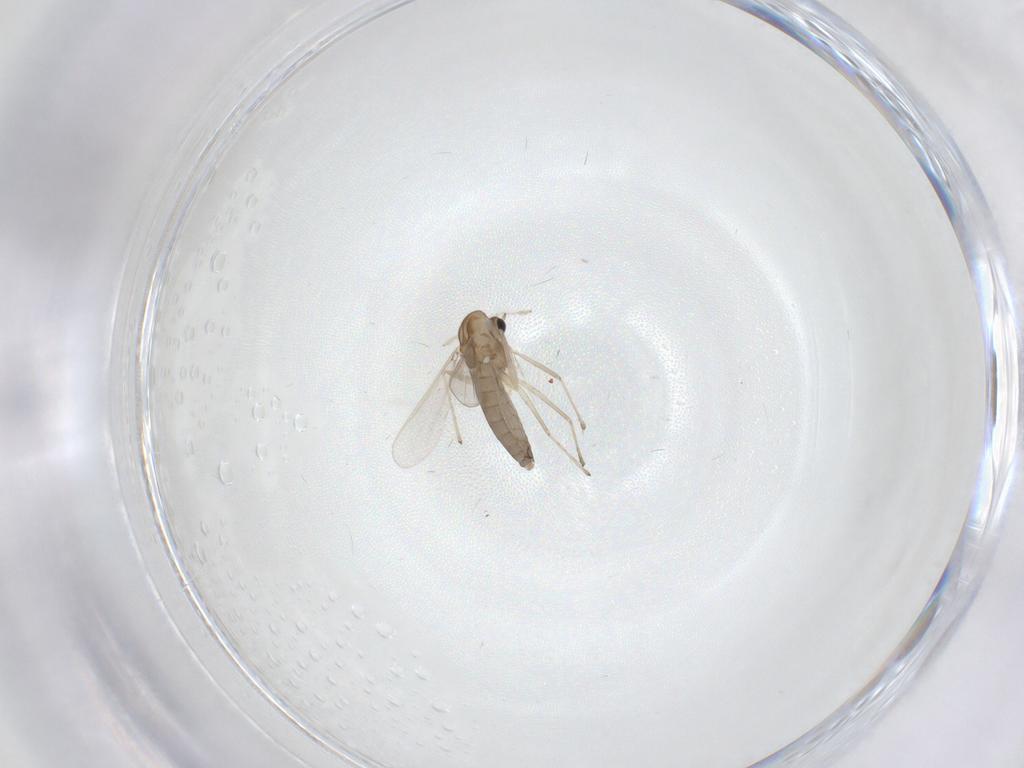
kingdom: Animalia
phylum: Arthropoda
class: Insecta
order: Diptera
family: Chironomidae
